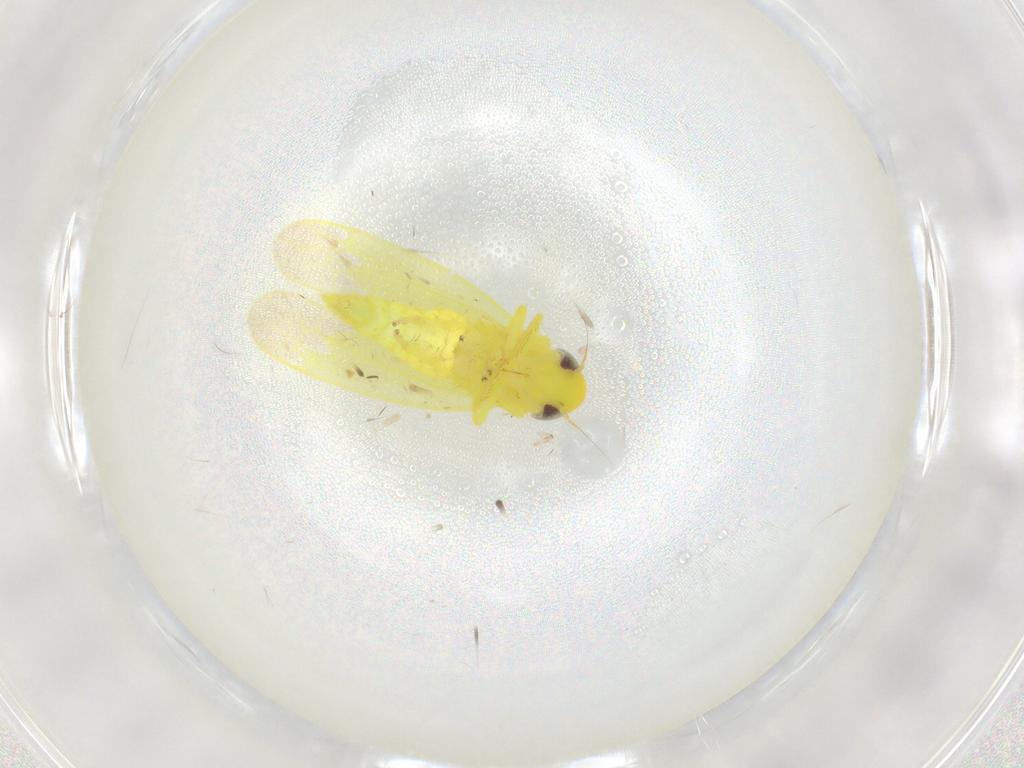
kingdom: Animalia
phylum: Arthropoda
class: Insecta
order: Hemiptera
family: Cicadellidae
